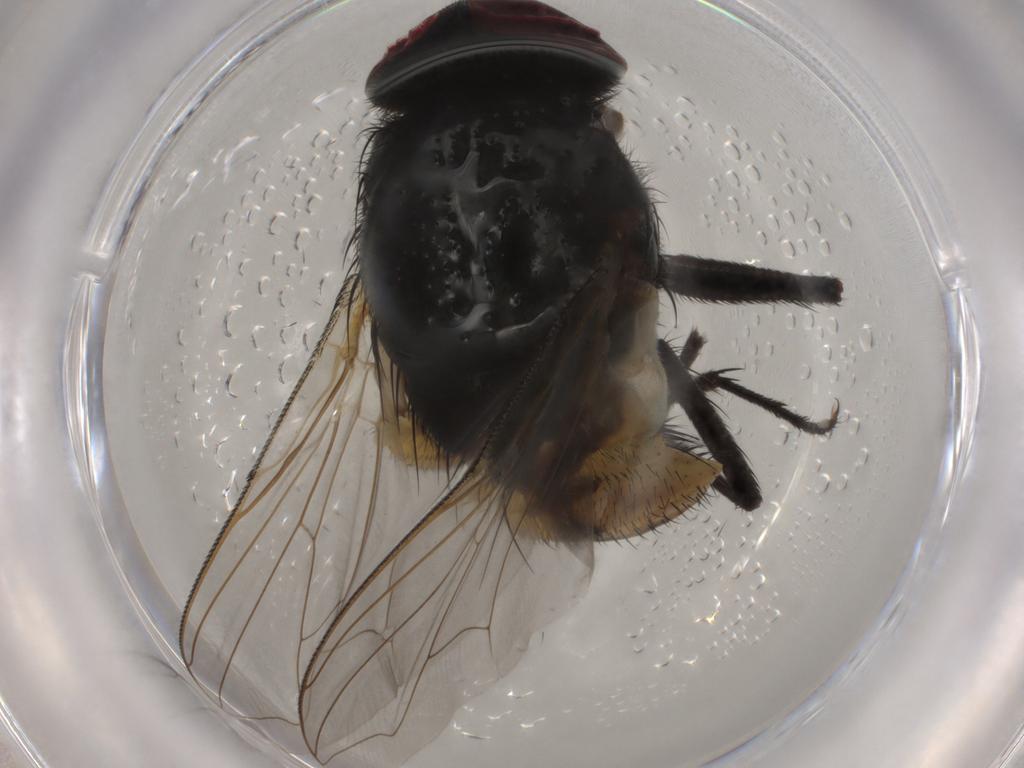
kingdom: Animalia
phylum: Arthropoda
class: Insecta
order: Diptera
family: Muscidae
